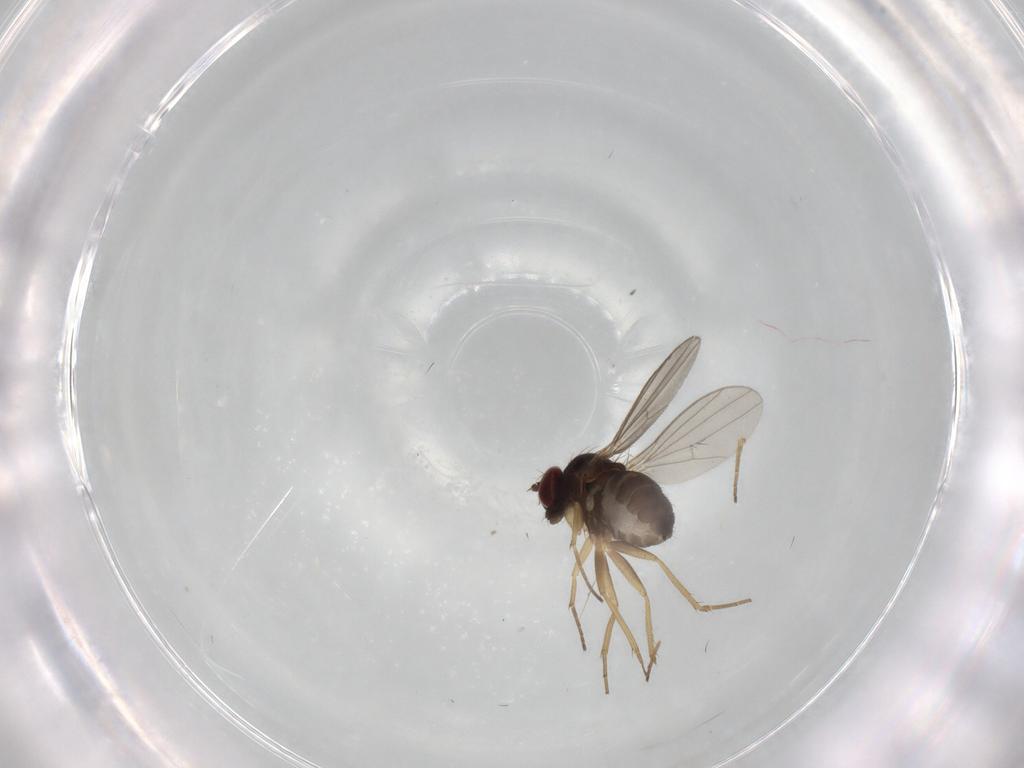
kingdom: Animalia
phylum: Arthropoda
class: Insecta
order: Diptera
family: Dolichopodidae
